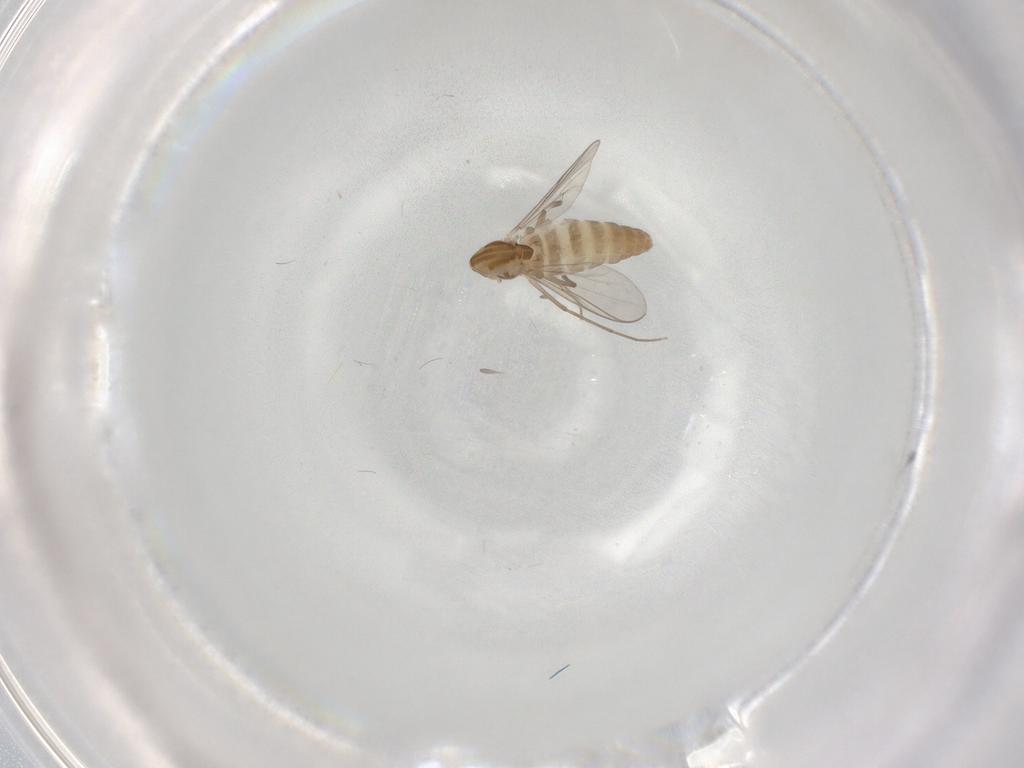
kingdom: Animalia
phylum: Arthropoda
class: Insecta
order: Diptera
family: Chironomidae
